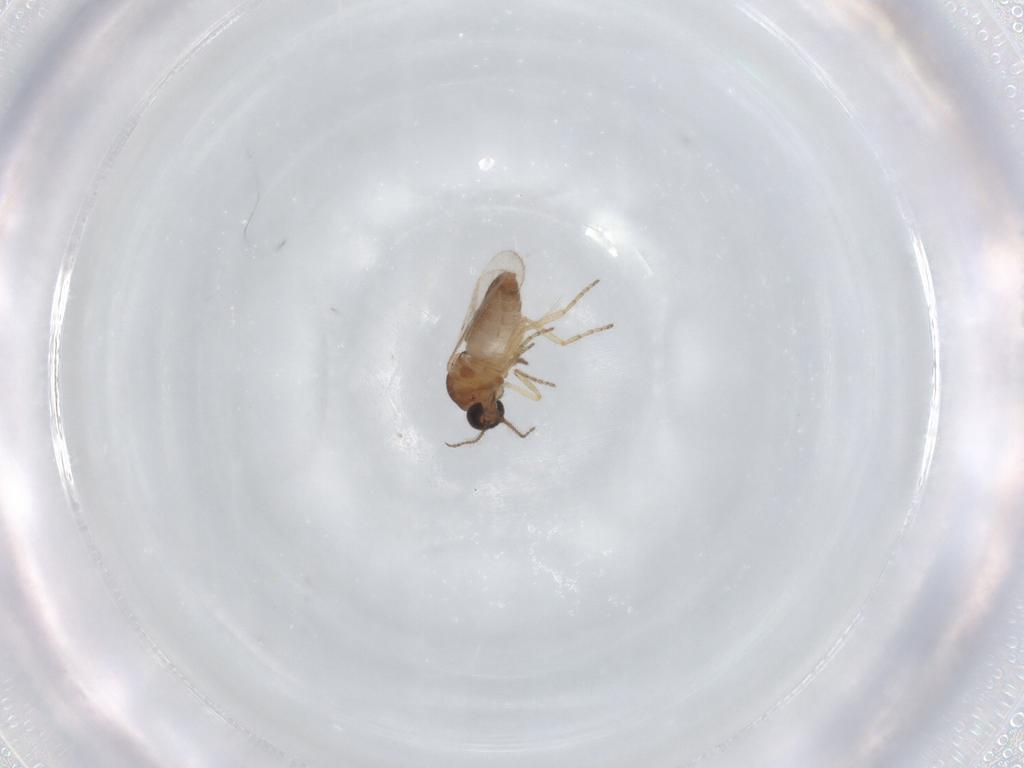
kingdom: Animalia
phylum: Arthropoda
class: Insecta
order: Diptera
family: Ceratopogonidae
